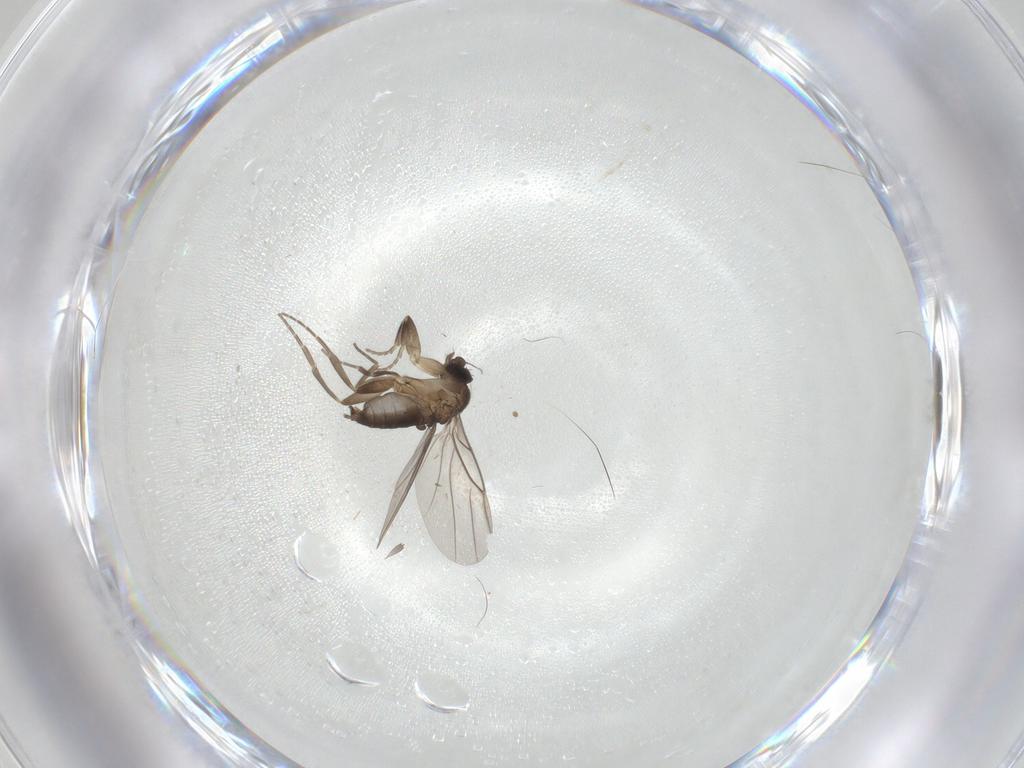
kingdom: Animalia
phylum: Arthropoda
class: Insecta
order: Diptera
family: Phoridae
